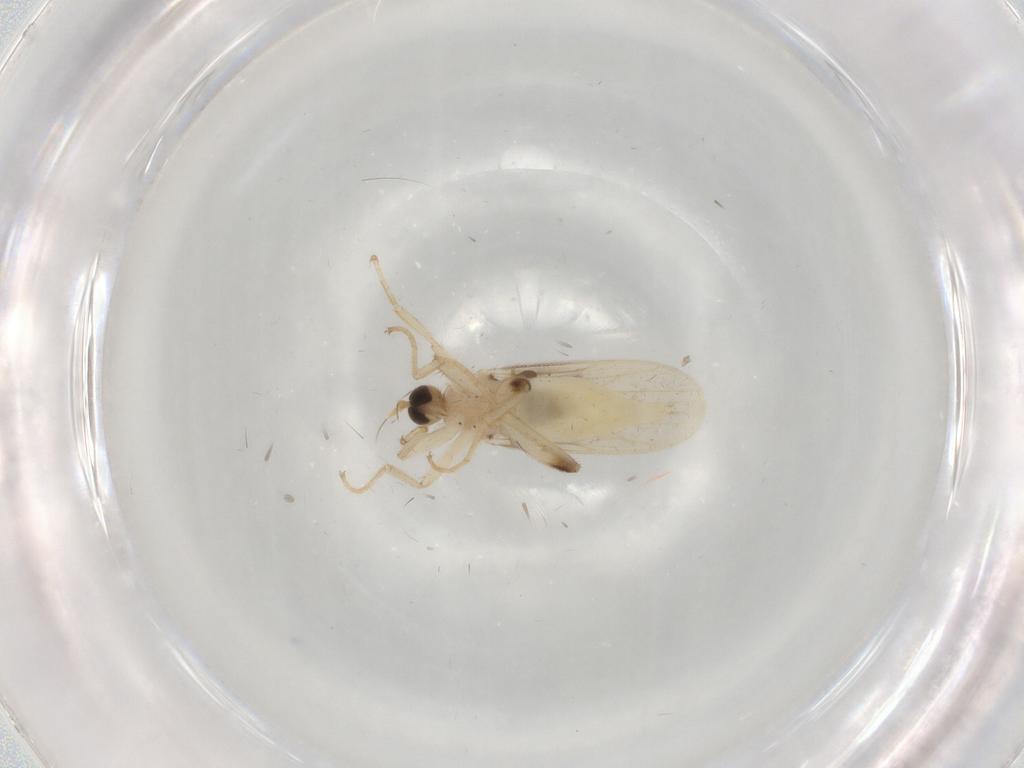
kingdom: Animalia
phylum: Arthropoda
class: Insecta
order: Diptera
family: Hybotidae
